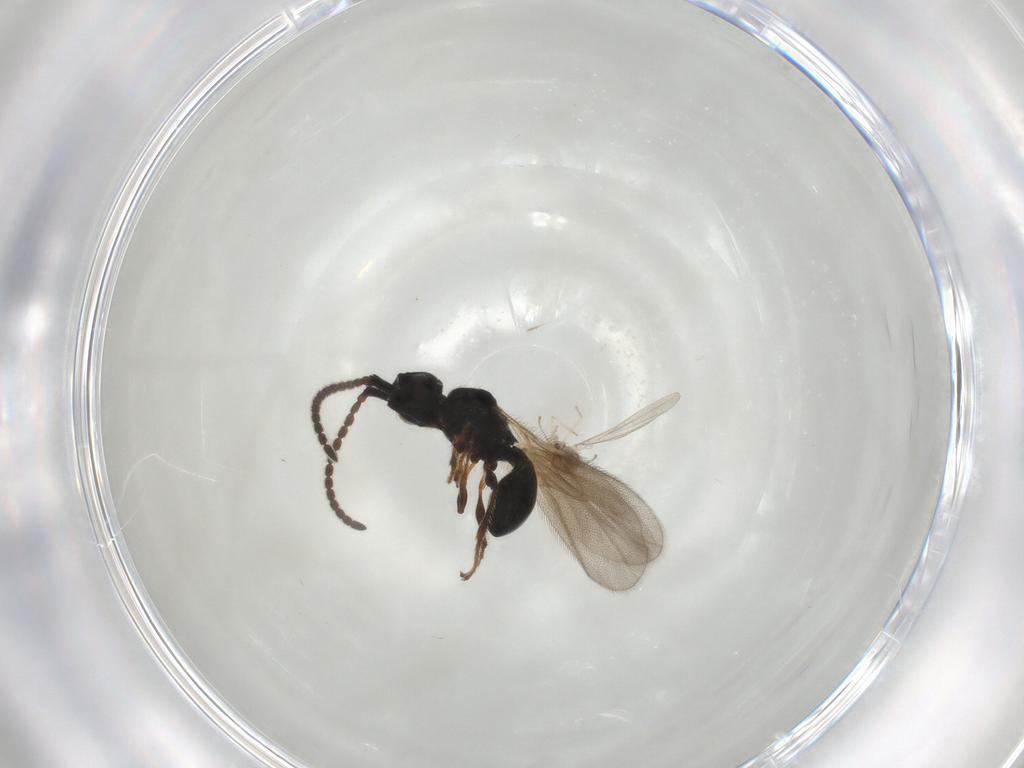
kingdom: Animalia
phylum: Arthropoda
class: Insecta
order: Hymenoptera
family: Diapriidae
